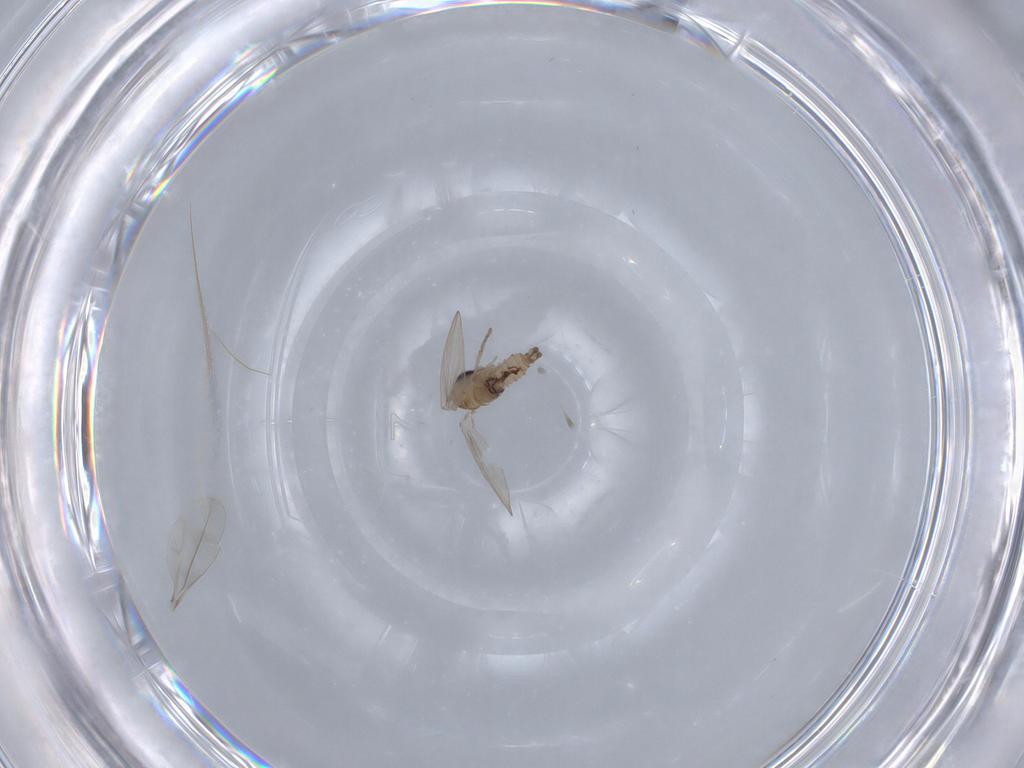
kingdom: Animalia
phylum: Arthropoda
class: Insecta
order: Diptera
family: Psychodidae
